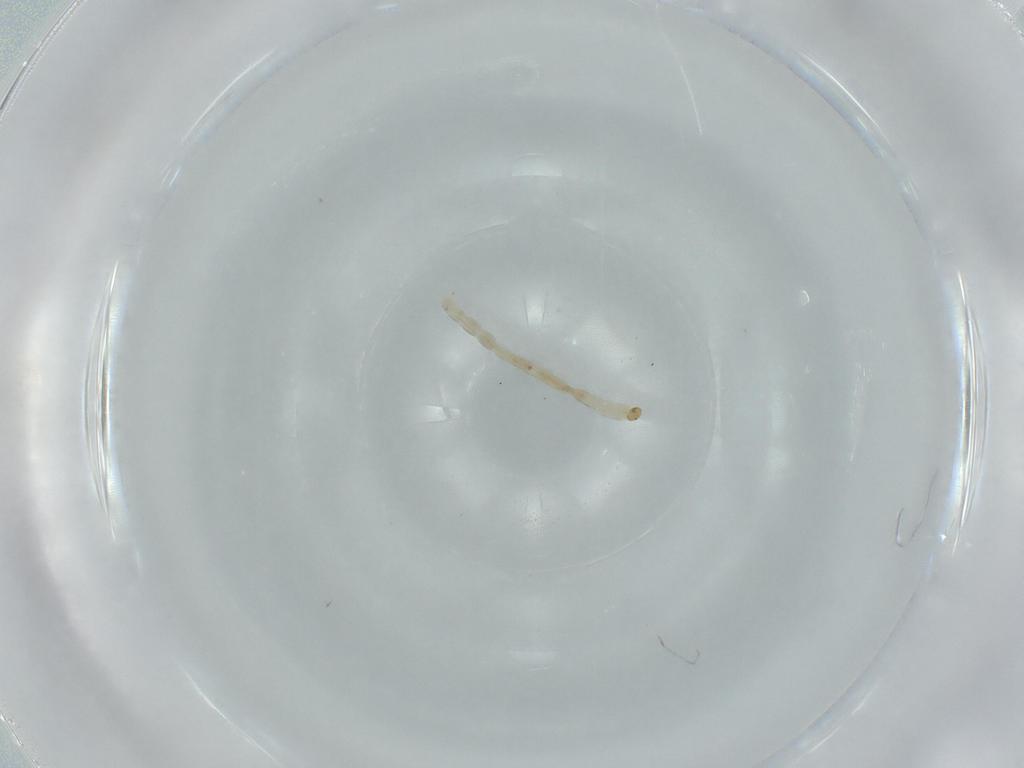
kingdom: Animalia
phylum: Arthropoda
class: Insecta
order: Diptera
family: Chironomidae
